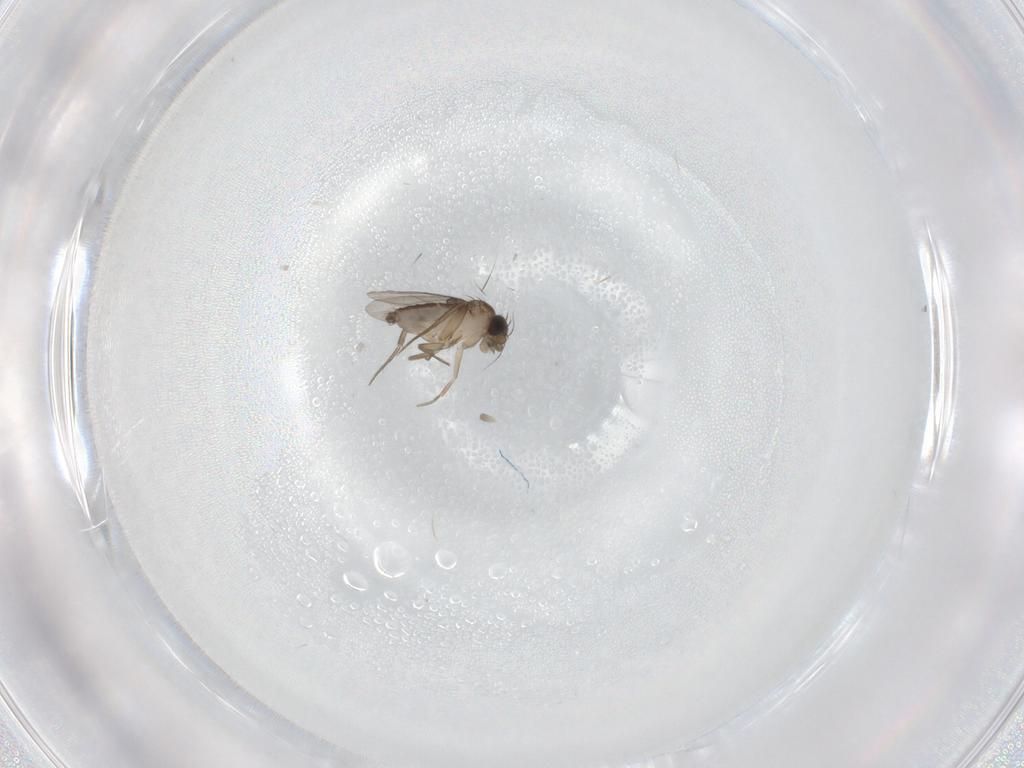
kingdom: Animalia
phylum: Arthropoda
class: Insecta
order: Diptera
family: Phoridae
